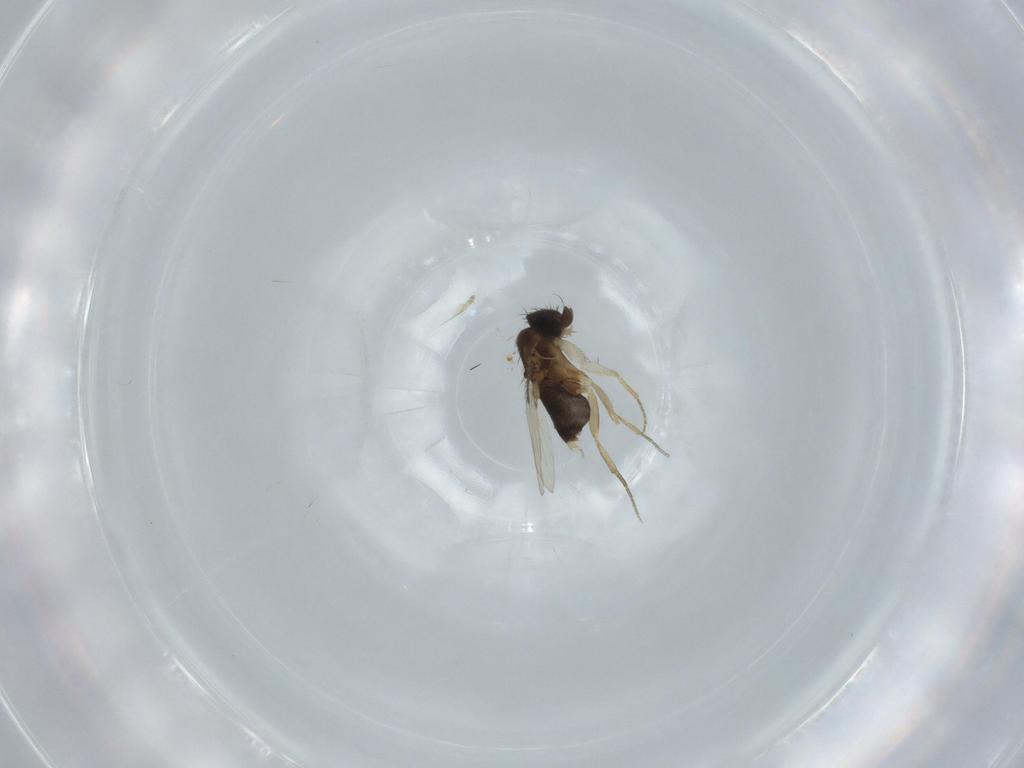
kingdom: Animalia
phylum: Arthropoda
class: Insecta
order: Diptera
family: Phoridae
